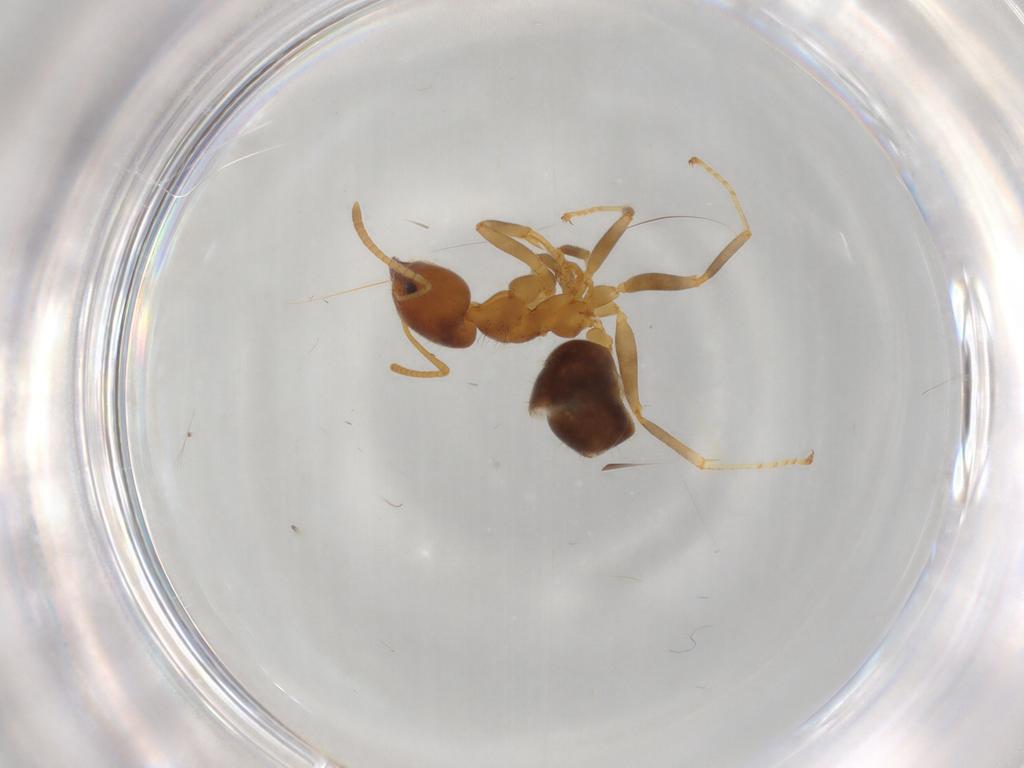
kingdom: Animalia
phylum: Arthropoda
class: Insecta
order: Hymenoptera
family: Formicidae
